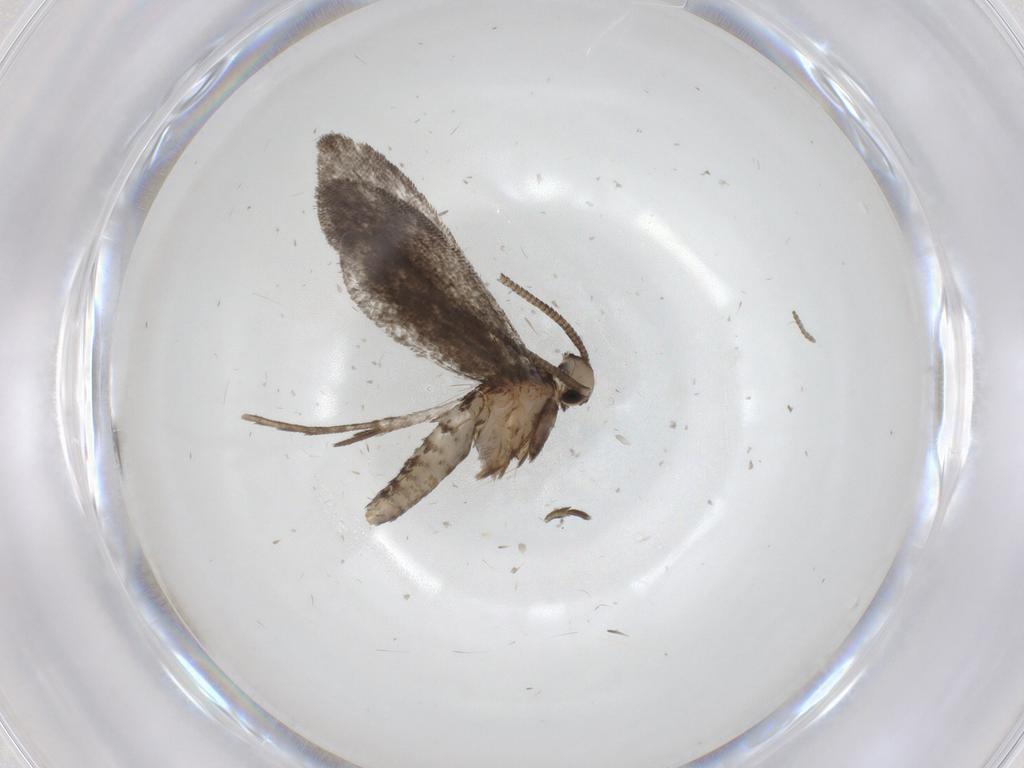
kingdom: Animalia
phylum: Arthropoda
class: Insecta
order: Lepidoptera
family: Nymphalidae
